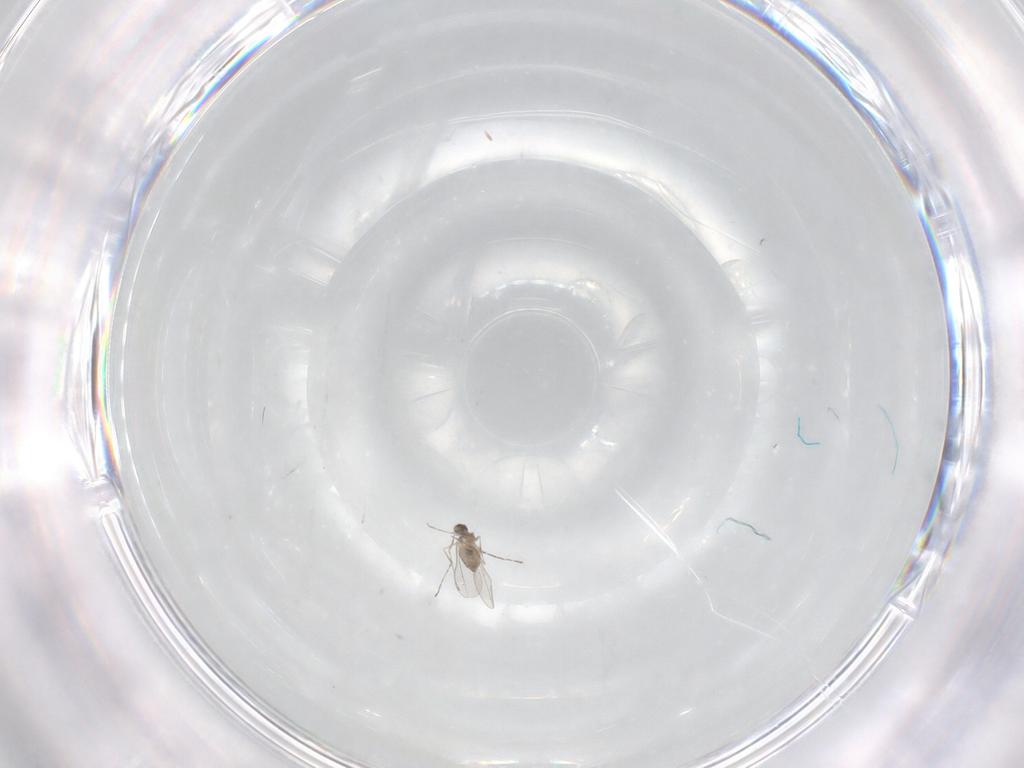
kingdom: Animalia
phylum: Arthropoda
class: Insecta
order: Diptera
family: Cecidomyiidae
